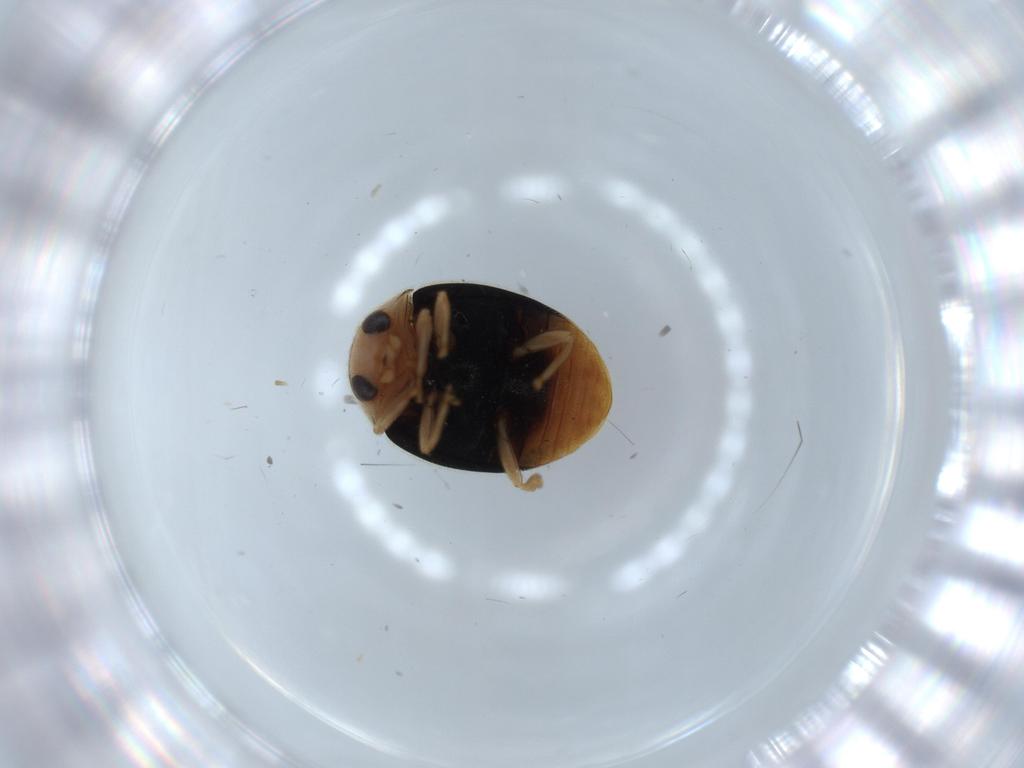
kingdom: Animalia
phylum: Arthropoda
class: Insecta
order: Coleoptera
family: Coccinellidae
